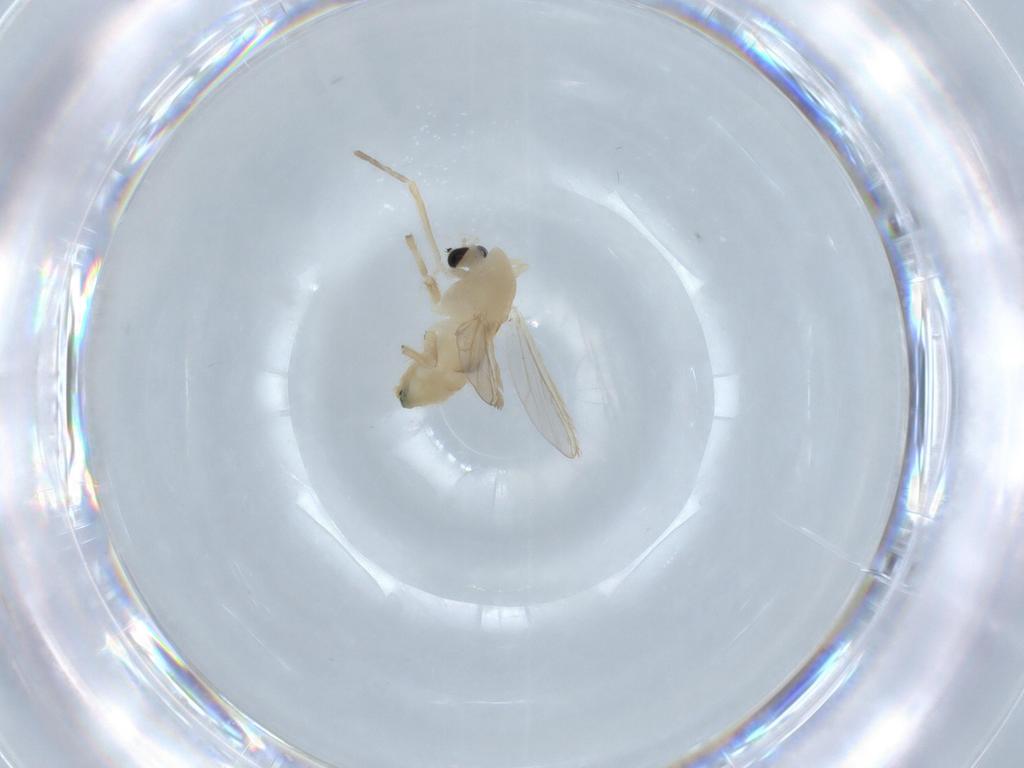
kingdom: Animalia
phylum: Arthropoda
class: Insecta
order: Diptera
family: Chironomidae
